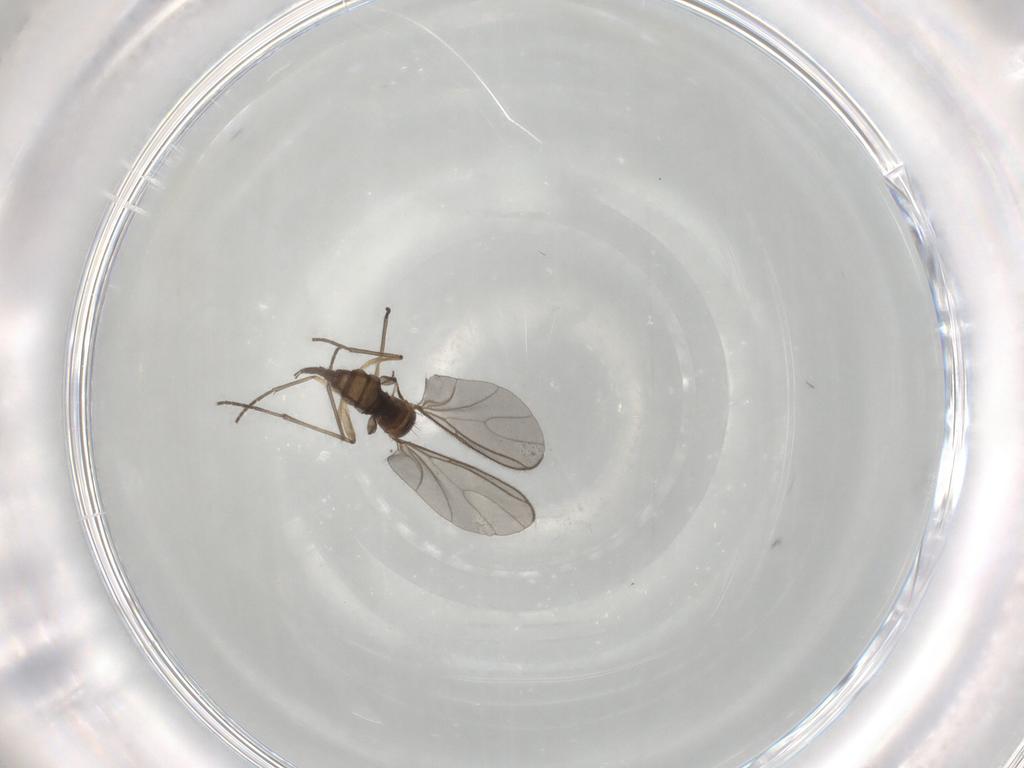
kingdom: Animalia
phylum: Arthropoda
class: Insecta
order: Diptera
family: Sciaridae
